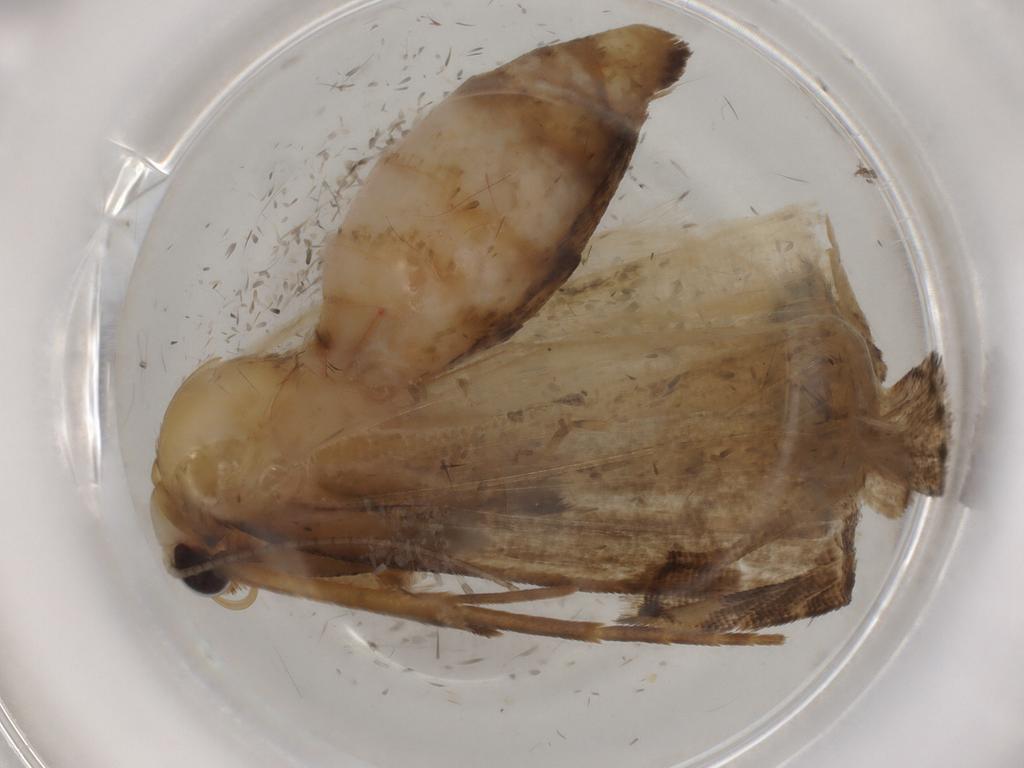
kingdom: Animalia
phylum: Arthropoda
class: Insecta
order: Lepidoptera
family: Noctuidae
